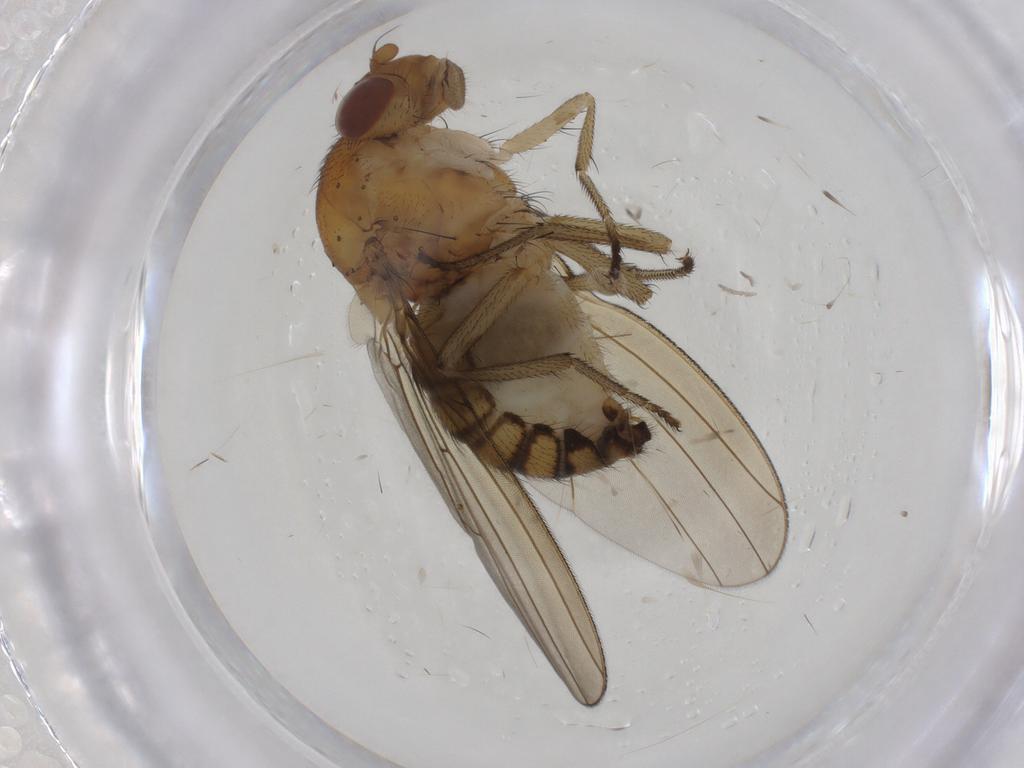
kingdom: Animalia
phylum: Arthropoda
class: Insecta
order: Diptera
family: Psychodidae
